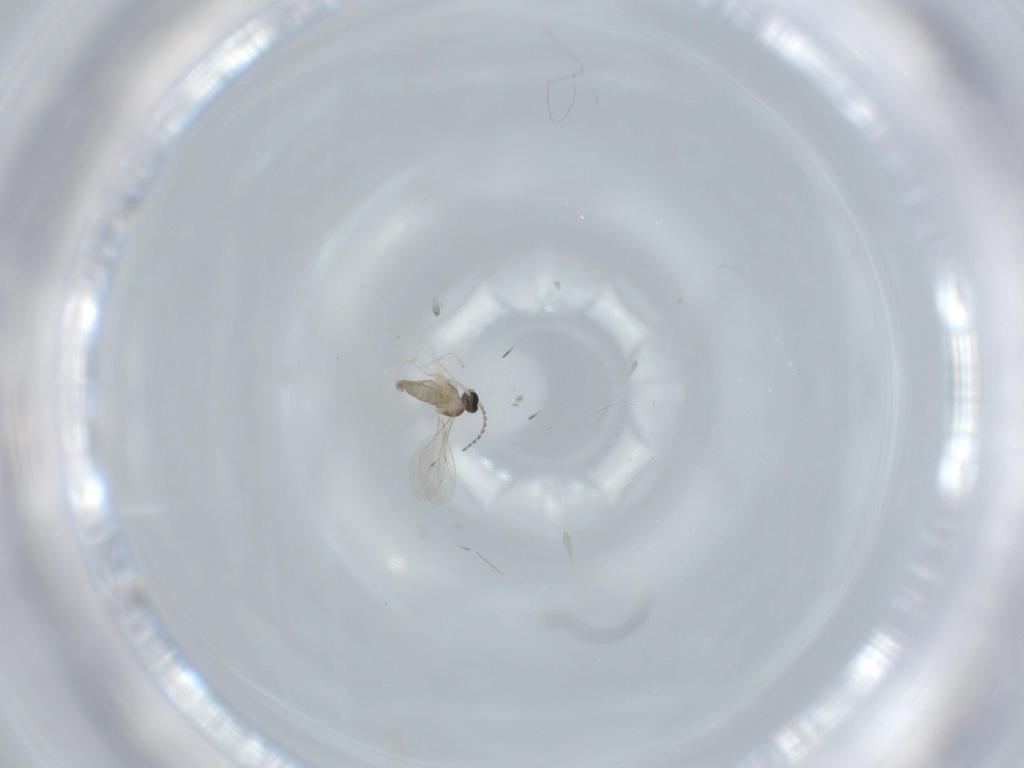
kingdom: Animalia
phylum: Arthropoda
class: Insecta
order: Diptera
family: Cecidomyiidae
